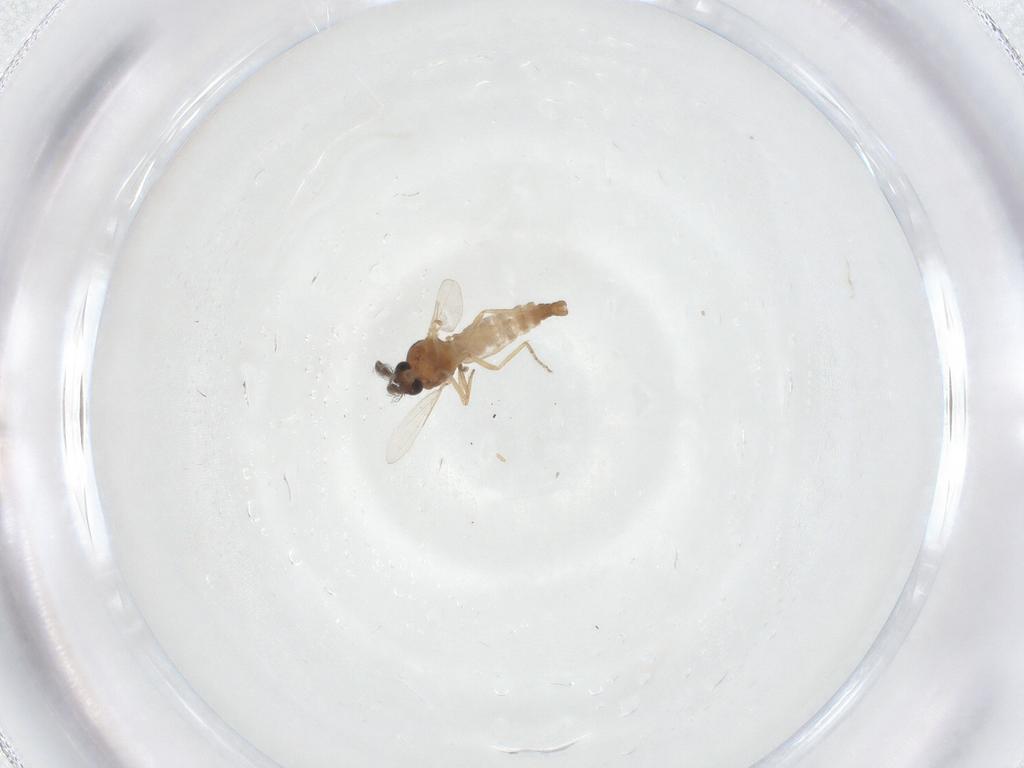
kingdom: Animalia
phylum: Arthropoda
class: Insecta
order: Diptera
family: Ceratopogonidae
